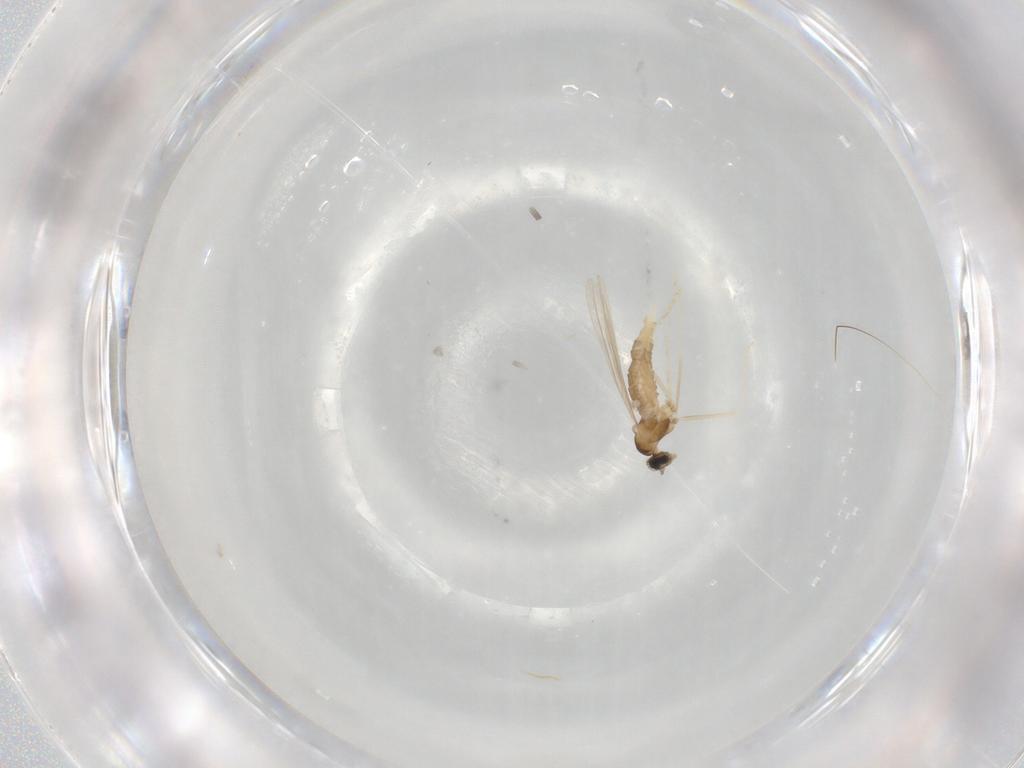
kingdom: Animalia
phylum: Arthropoda
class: Insecta
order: Diptera
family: Cecidomyiidae
